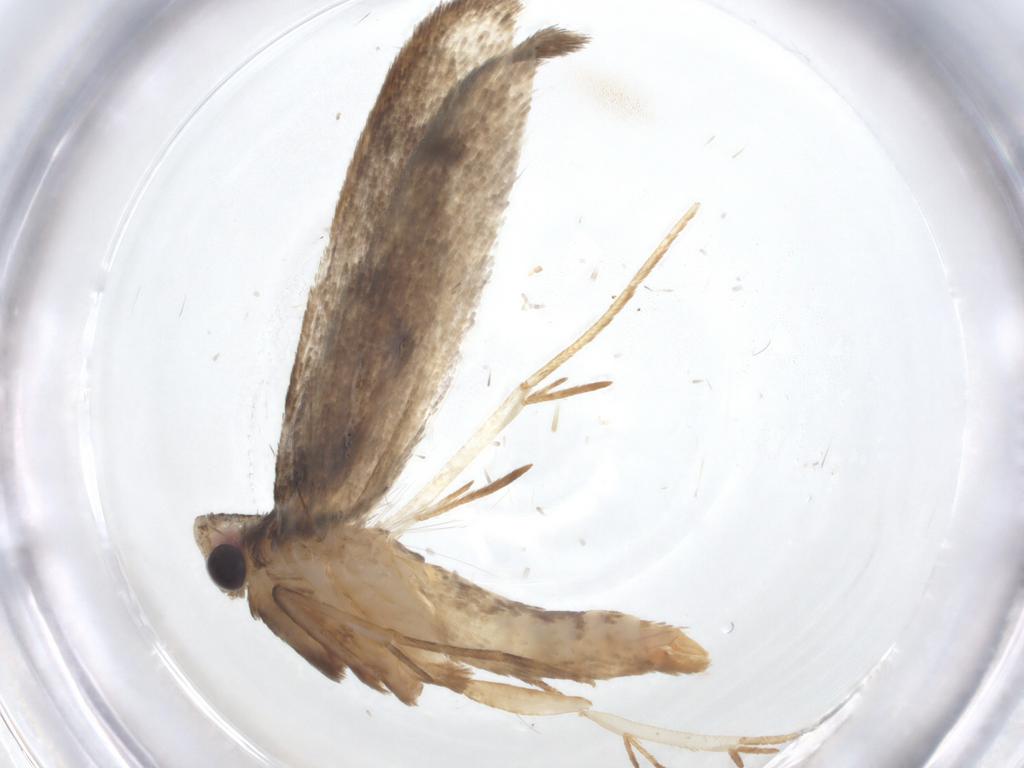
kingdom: Animalia
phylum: Arthropoda
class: Insecta
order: Lepidoptera
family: Tineidae
